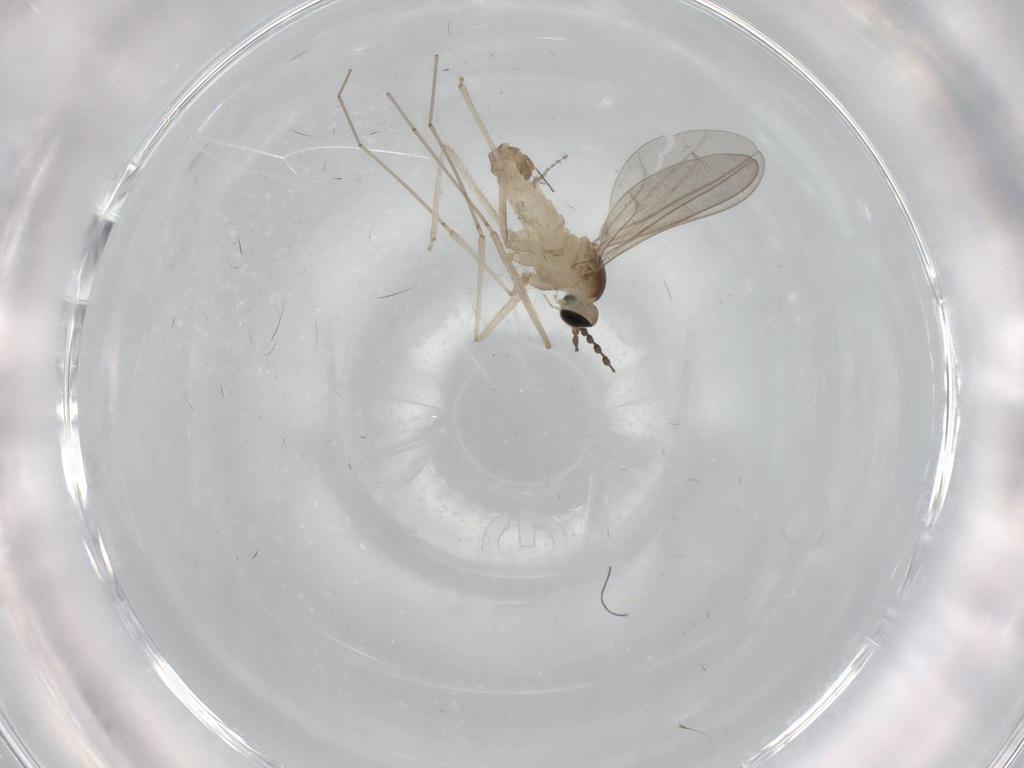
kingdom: Animalia
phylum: Arthropoda
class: Insecta
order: Diptera
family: Cecidomyiidae
